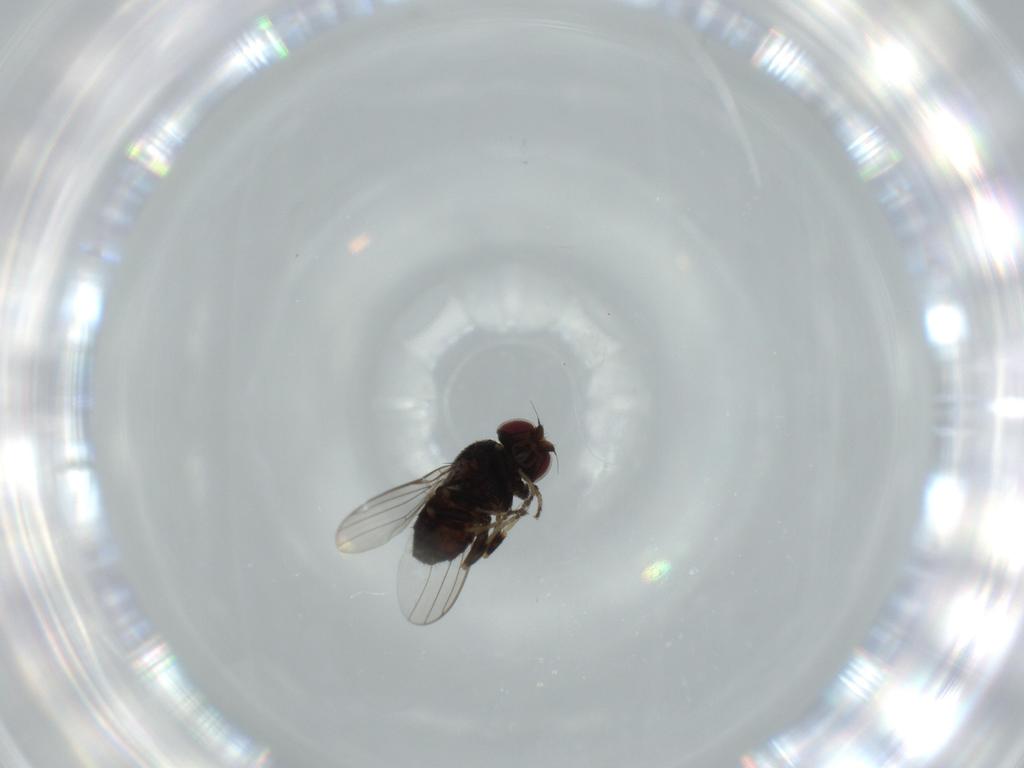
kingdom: Animalia
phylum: Arthropoda
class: Insecta
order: Diptera
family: Chloropidae
